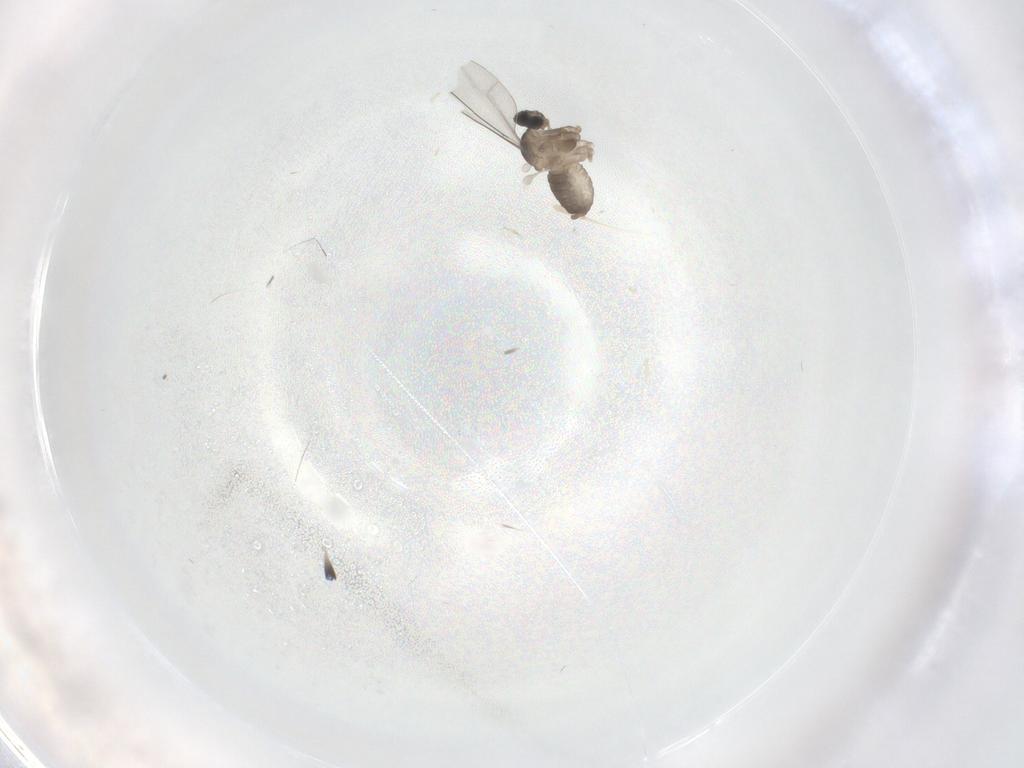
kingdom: Animalia
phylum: Arthropoda
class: Insecta
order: Diptera
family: Cecidomyiidae
